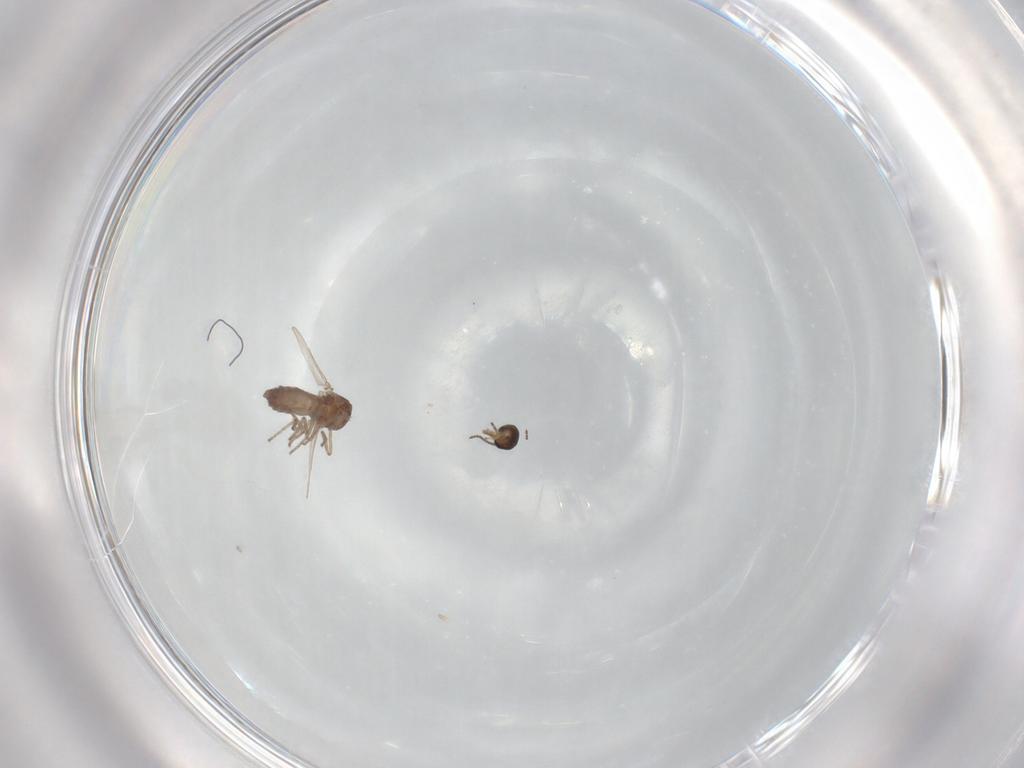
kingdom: Animalia
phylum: Arthropoda
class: Insecta
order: Diptera
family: Ceratopogonidae
